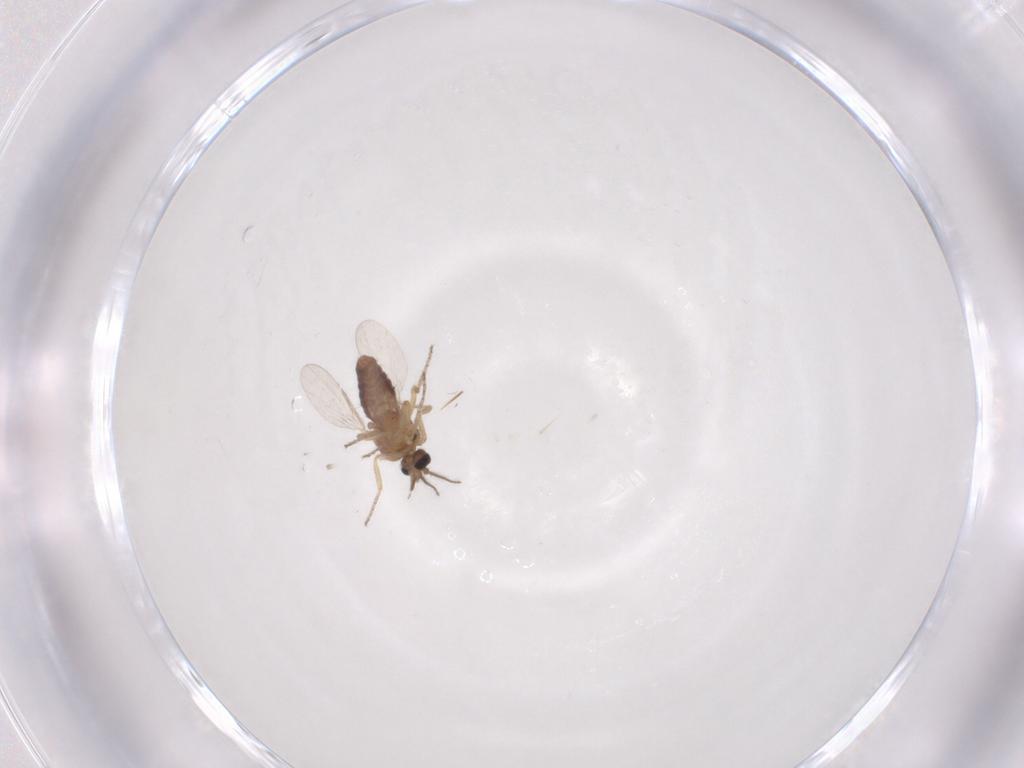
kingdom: Animalia
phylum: Arthropoda
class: Insecta
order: Diptera
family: Ceratopogonidae
